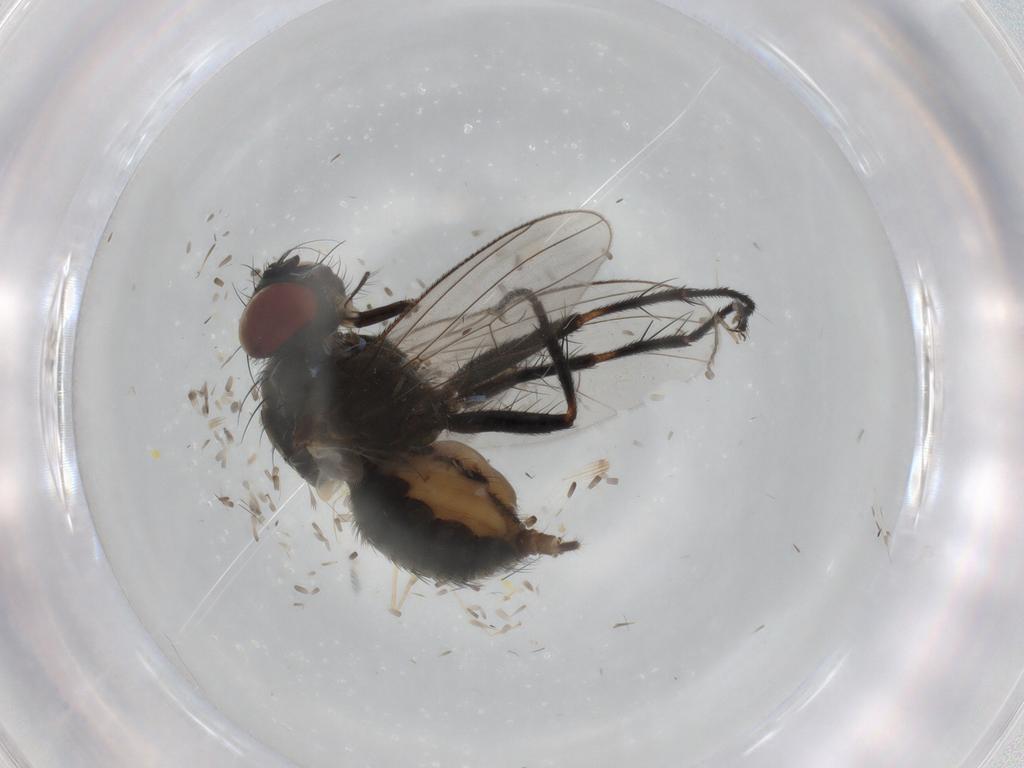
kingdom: Animalia
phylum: Arthropoda
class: Insecta
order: Diptera
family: Muscidae
